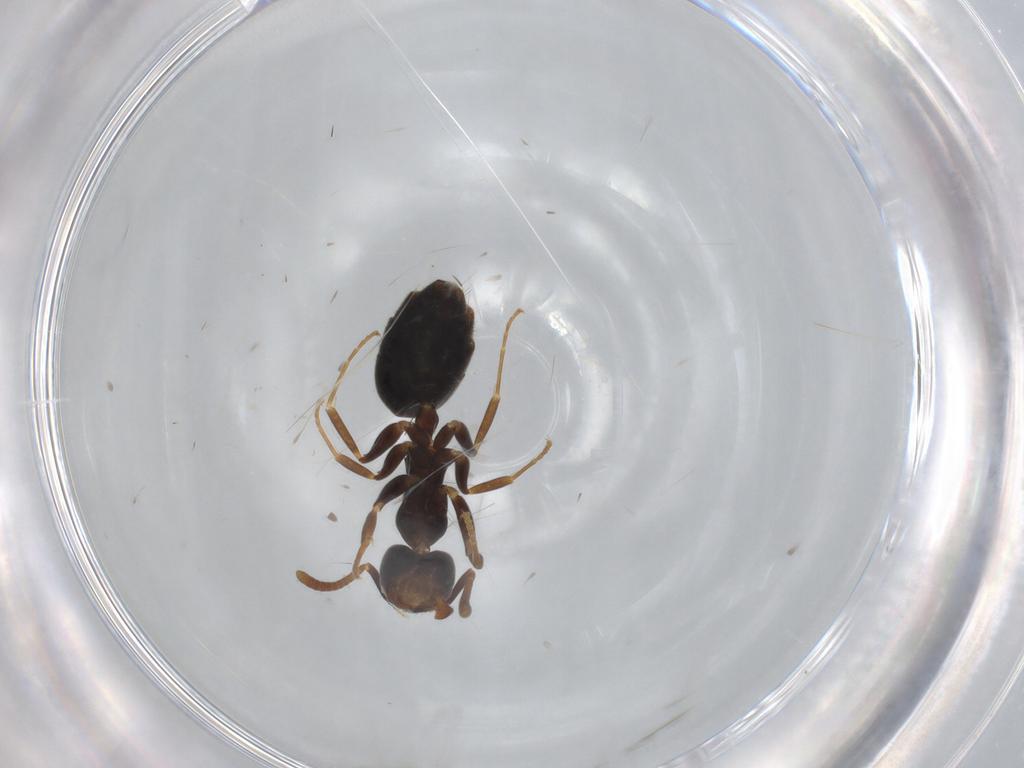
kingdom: Animalia
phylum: Arthropoda
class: Insecta
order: Hymenoptera
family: Formicidae
